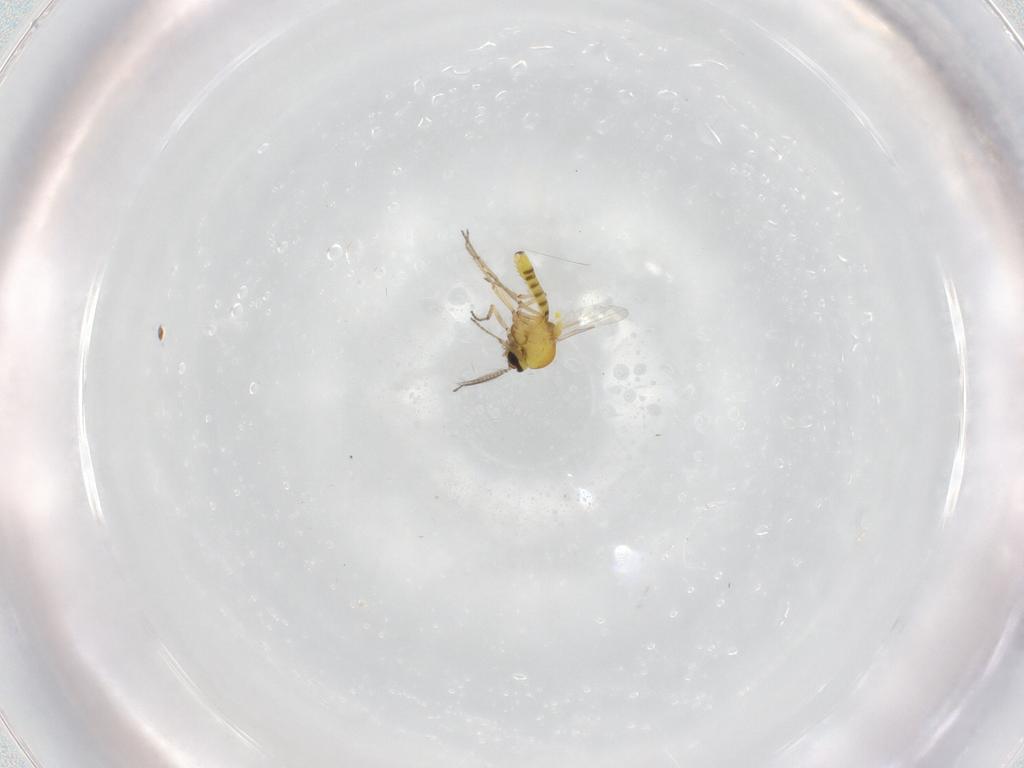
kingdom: Animalia
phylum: Arthropoda
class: Insecta
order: Diptera
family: Ceratopogonidae
